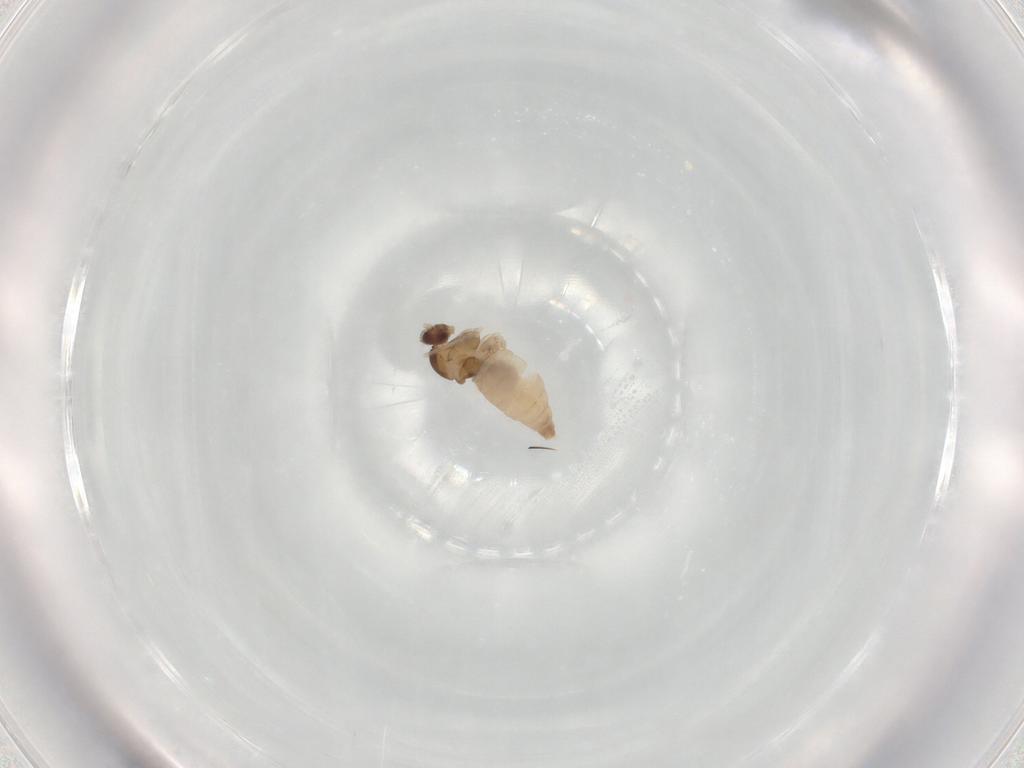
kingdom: Animalia
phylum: Arthropoda
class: Insecta
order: Diptera
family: Cecidomyiidae
